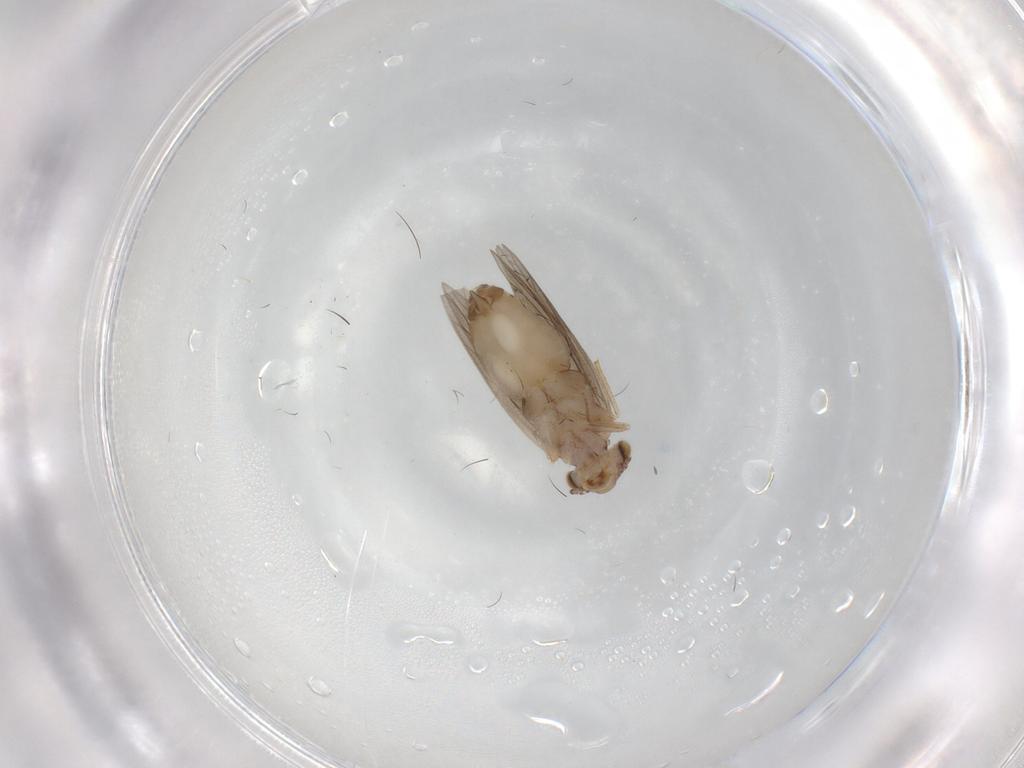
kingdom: Animalia
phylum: Arthropoda
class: Insecta
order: Psocodea
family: Lepidopsocidae
